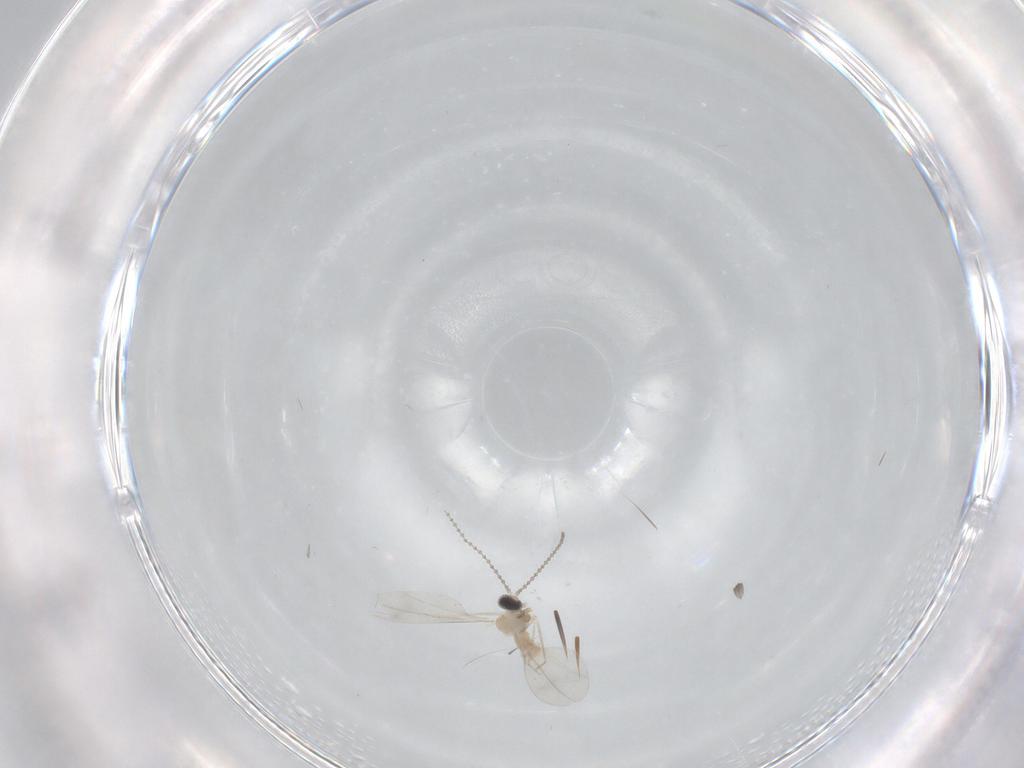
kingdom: Animalia
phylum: Arthropoda
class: Insecta
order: Diptera
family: Cecidomyiidae
